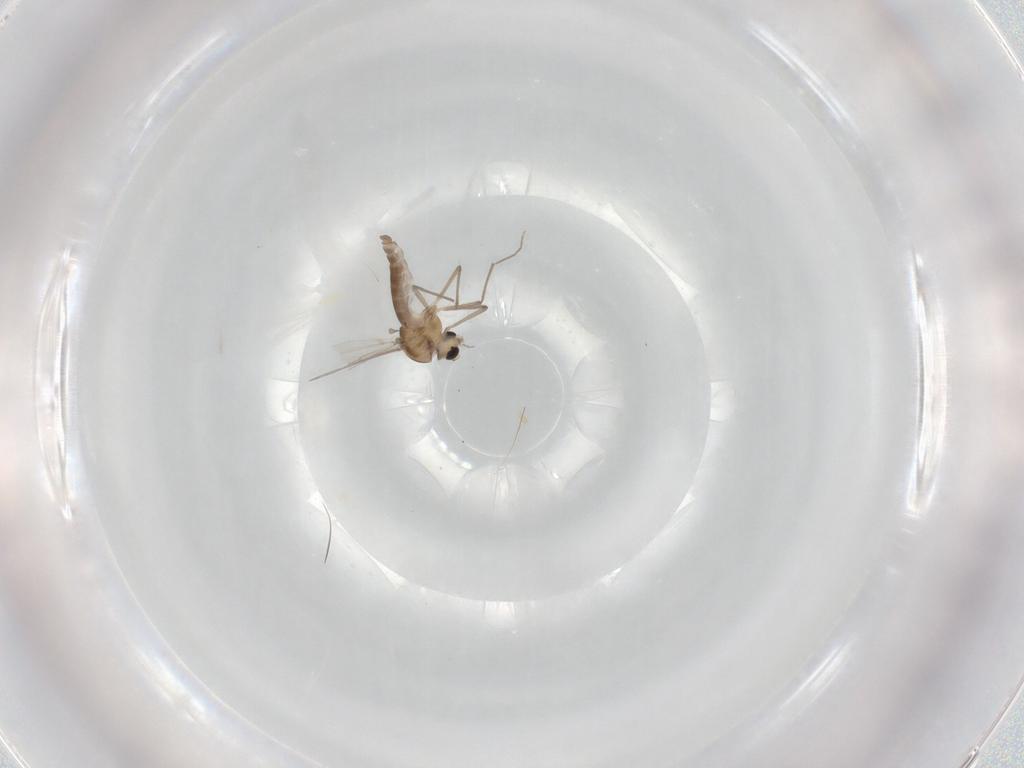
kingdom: Animalia
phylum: Arthropoda
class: Insecta
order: Diptera
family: Chironomidae
